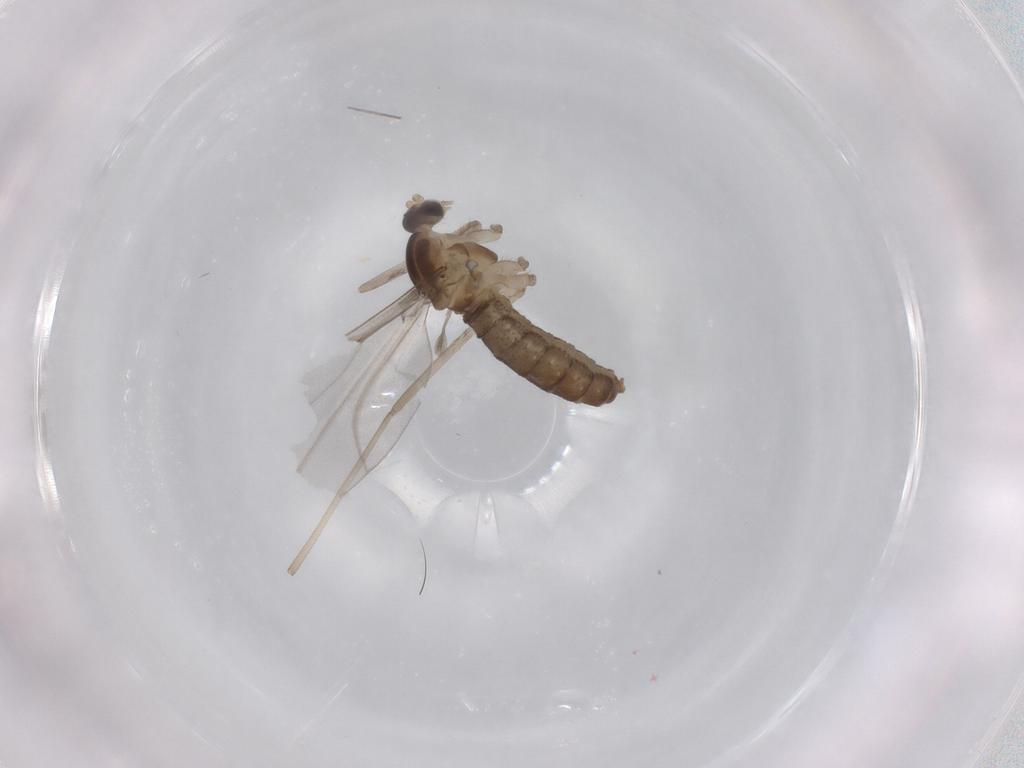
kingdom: Animalia
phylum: Arthropoda
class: Insecta
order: Diptera
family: Cecidomyiidae
